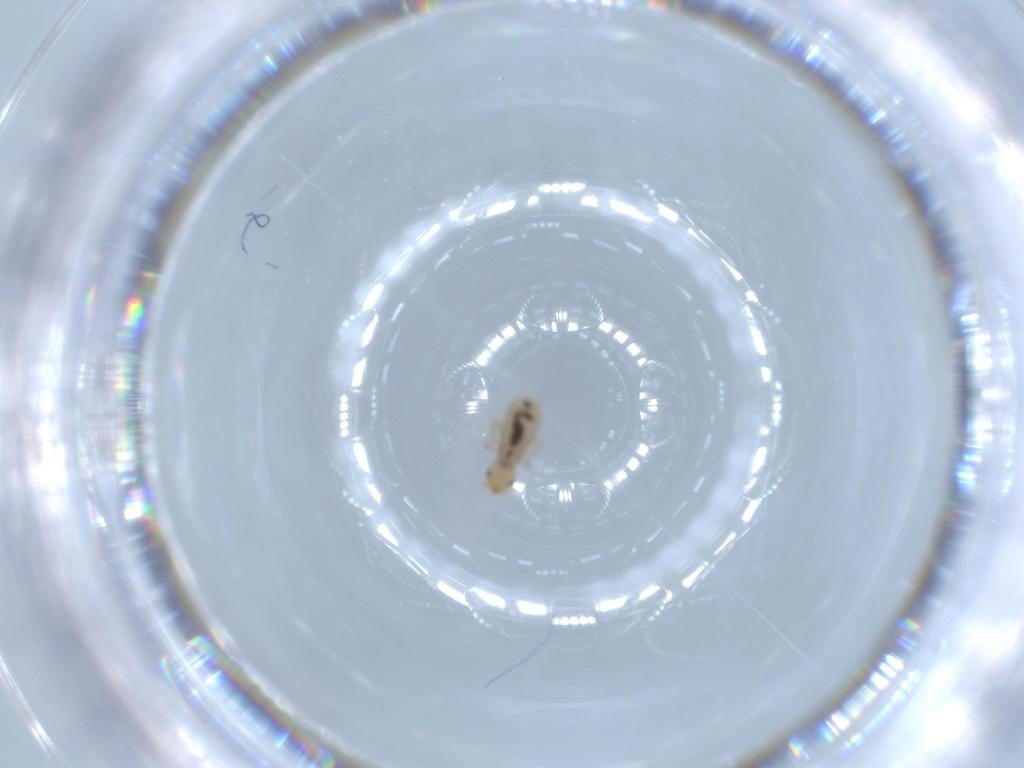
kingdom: Animalia
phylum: Arthropoda
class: Insecta
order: Psocodea
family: Liposcelididae
